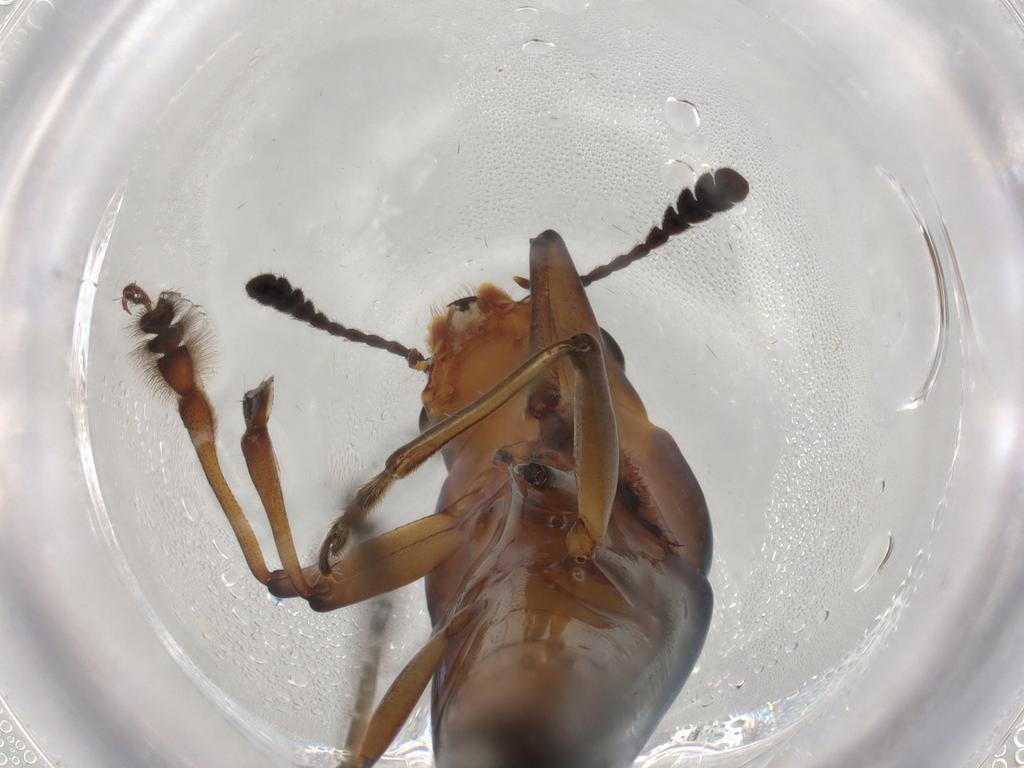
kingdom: Animalia
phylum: Arthropoda
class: Insecta
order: Coleoptera
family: Erotylidae
